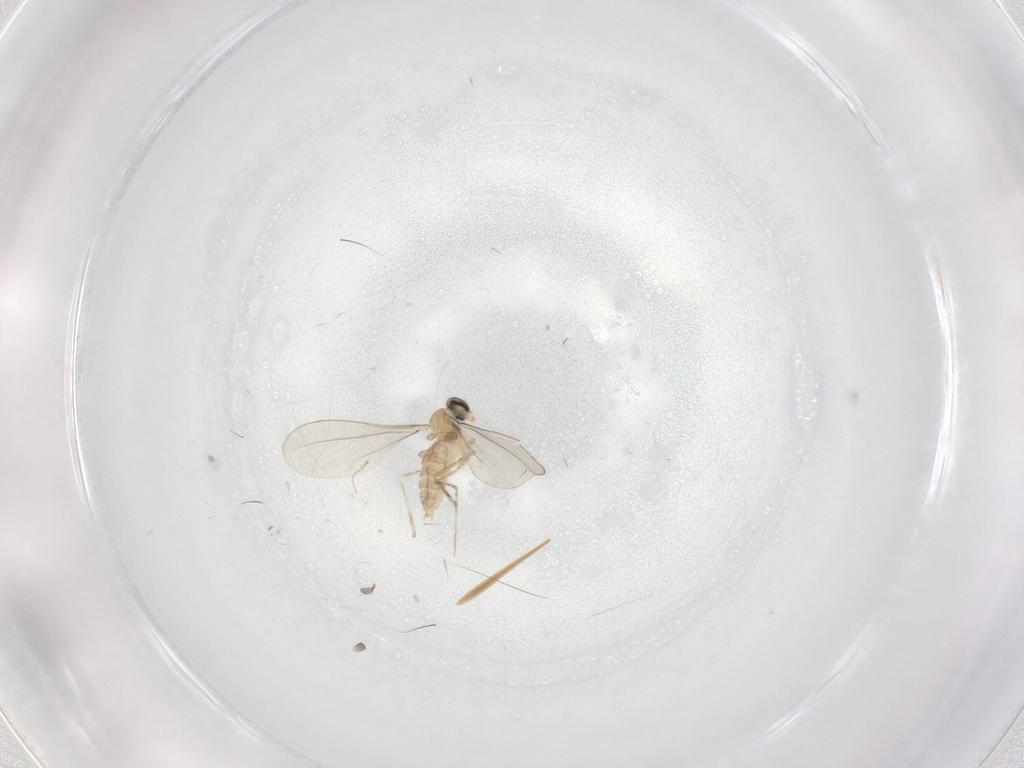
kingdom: Animalia
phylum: Arthropoda
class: Insecta
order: Diptera
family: Cecidomyiidae
